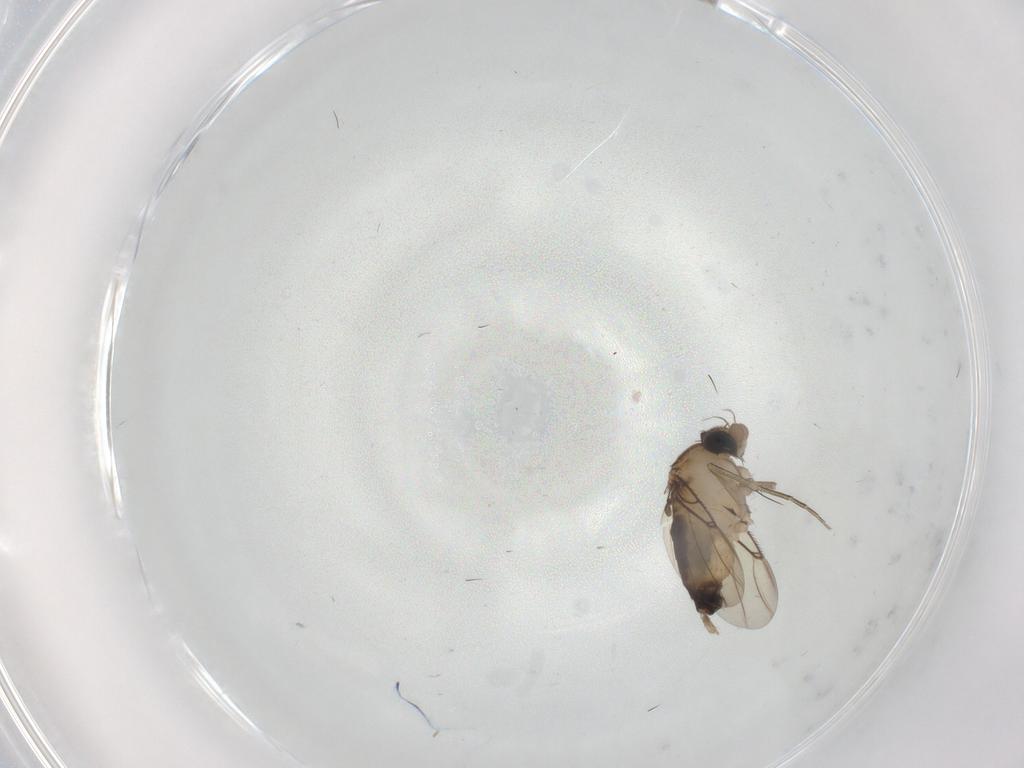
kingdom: Animalia
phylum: Arthropoda
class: Insecta
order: Diptera
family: Phoridae
